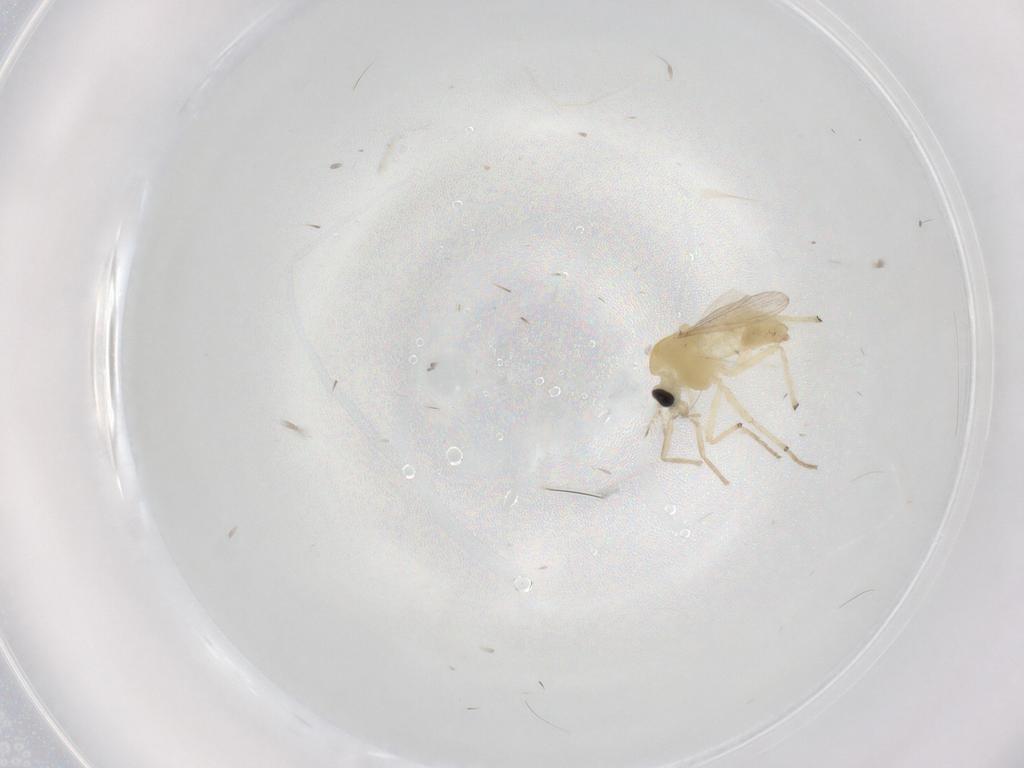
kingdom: Animalia
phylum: Arthropoda
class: Insecta
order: Diptera
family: Chironomidae
